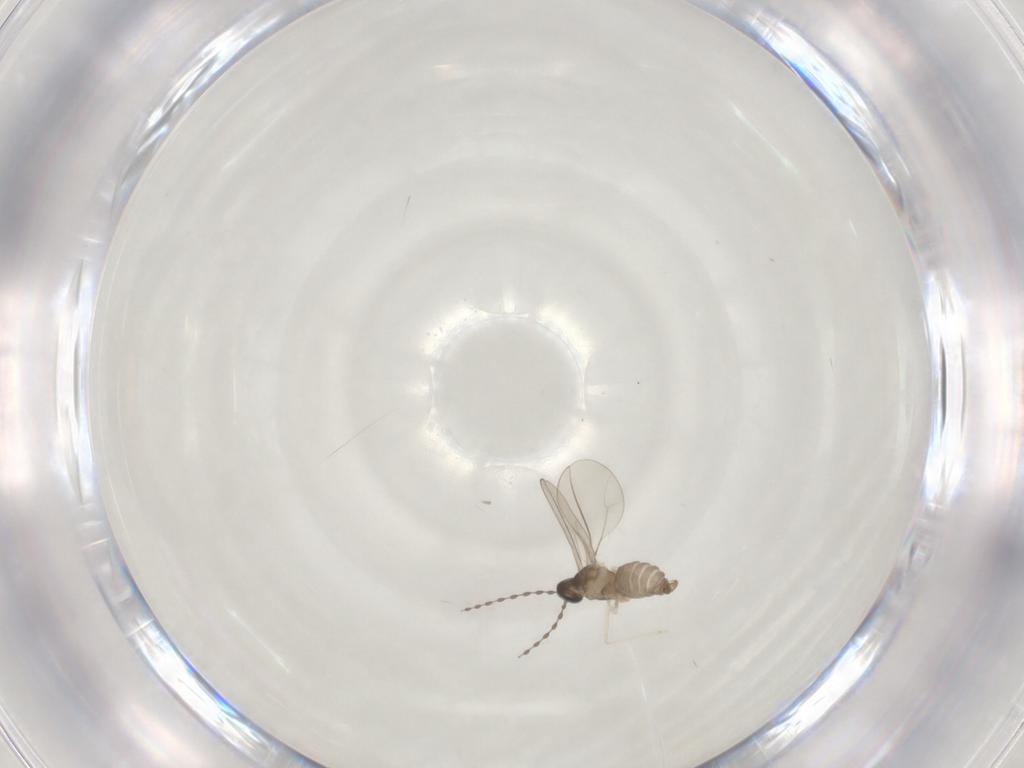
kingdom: Animalia
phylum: Arthropoda
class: Insecta
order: Diptera
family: Cecidomyiidae
